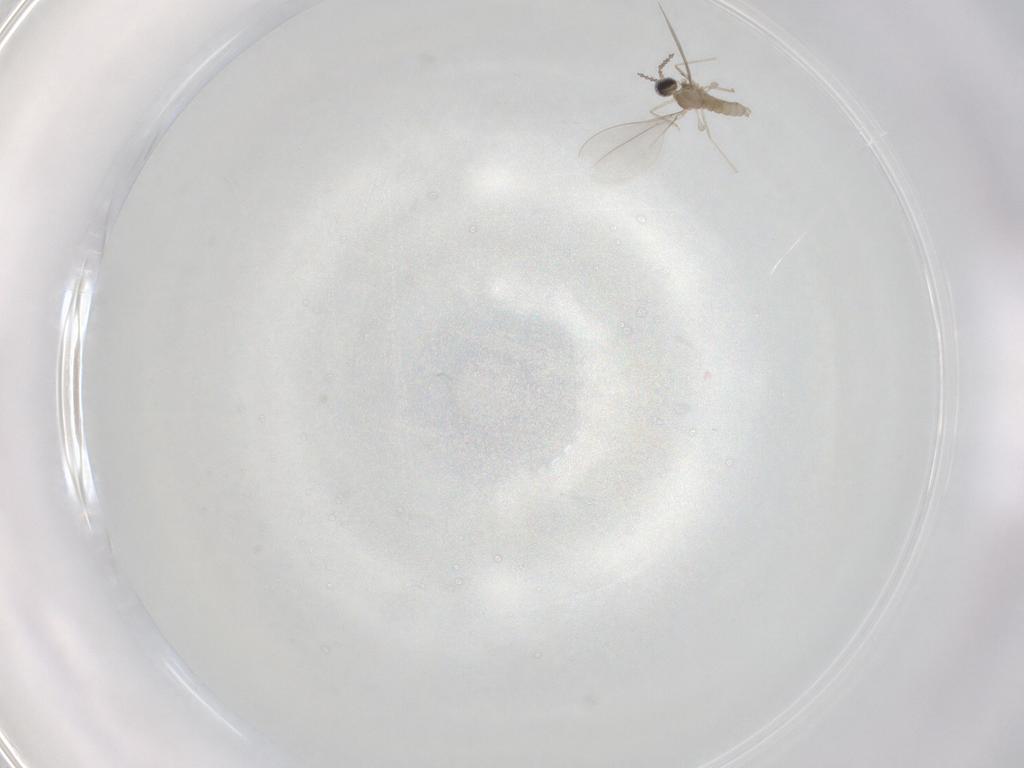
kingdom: Animalia
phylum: Arthropoda
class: Insecta
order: Diptera
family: Cecidomyiidae
